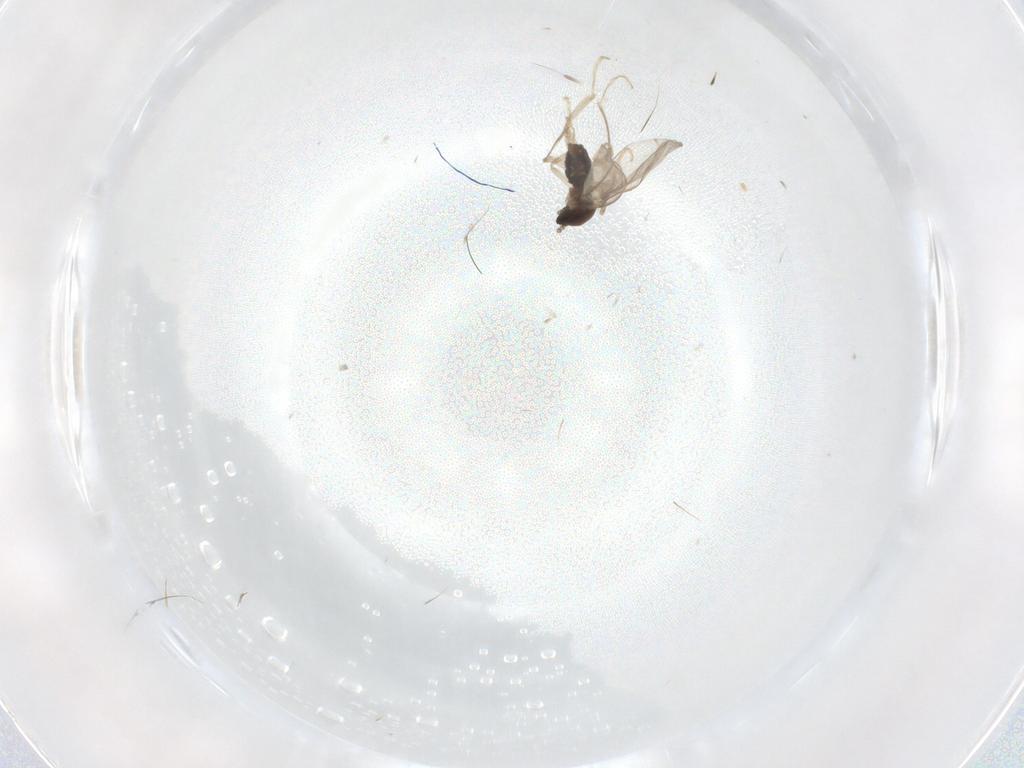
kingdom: Animalia
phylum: Arthropoda
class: Insecta
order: Diptera
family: Chironomidae
